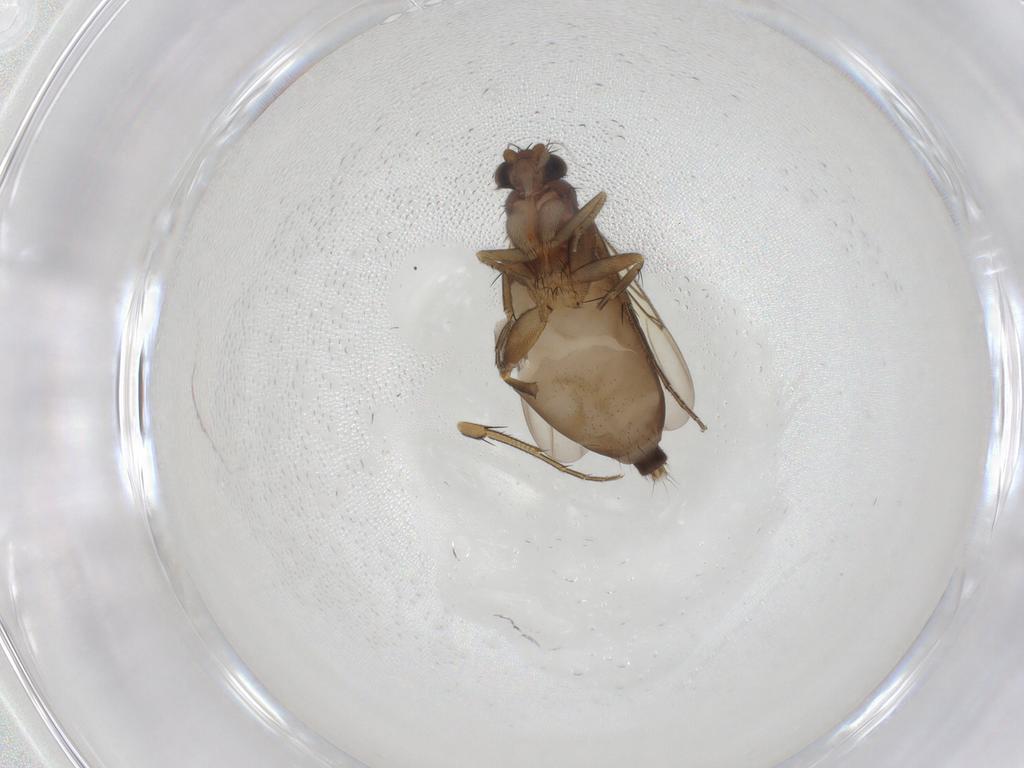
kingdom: Animalia
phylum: Arthropoda
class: Insecta
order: Diptera
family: Phoridae
